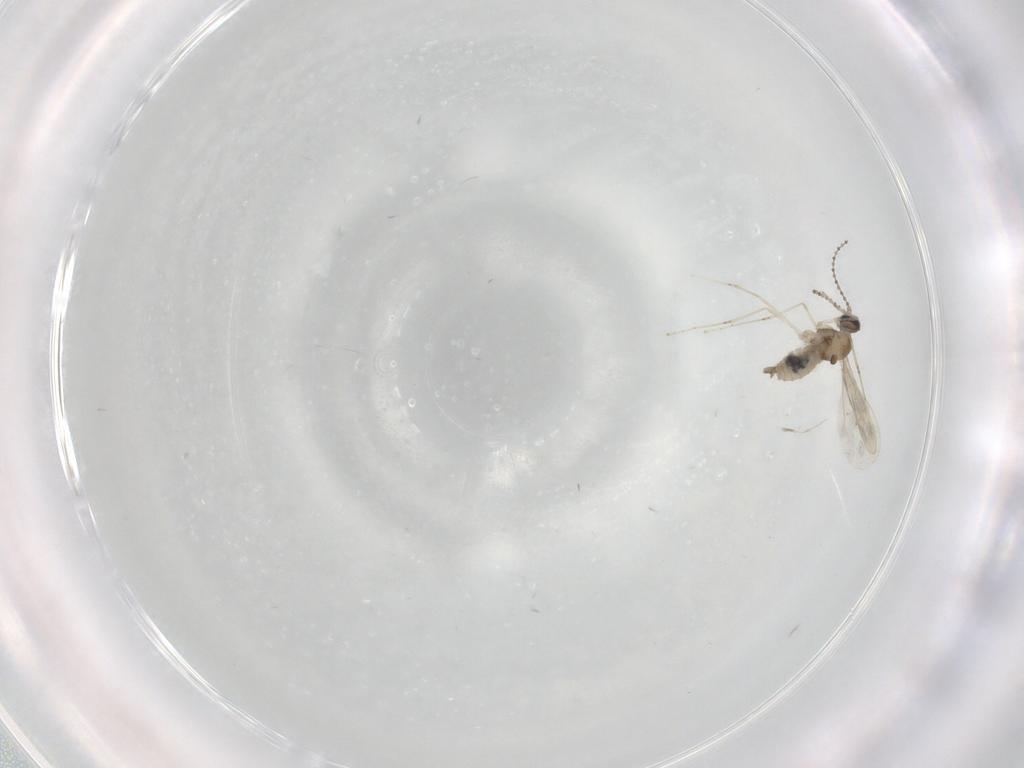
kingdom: Animalia
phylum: Arthropoda
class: Insecta
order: Diptera
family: Cecidomyiidae
